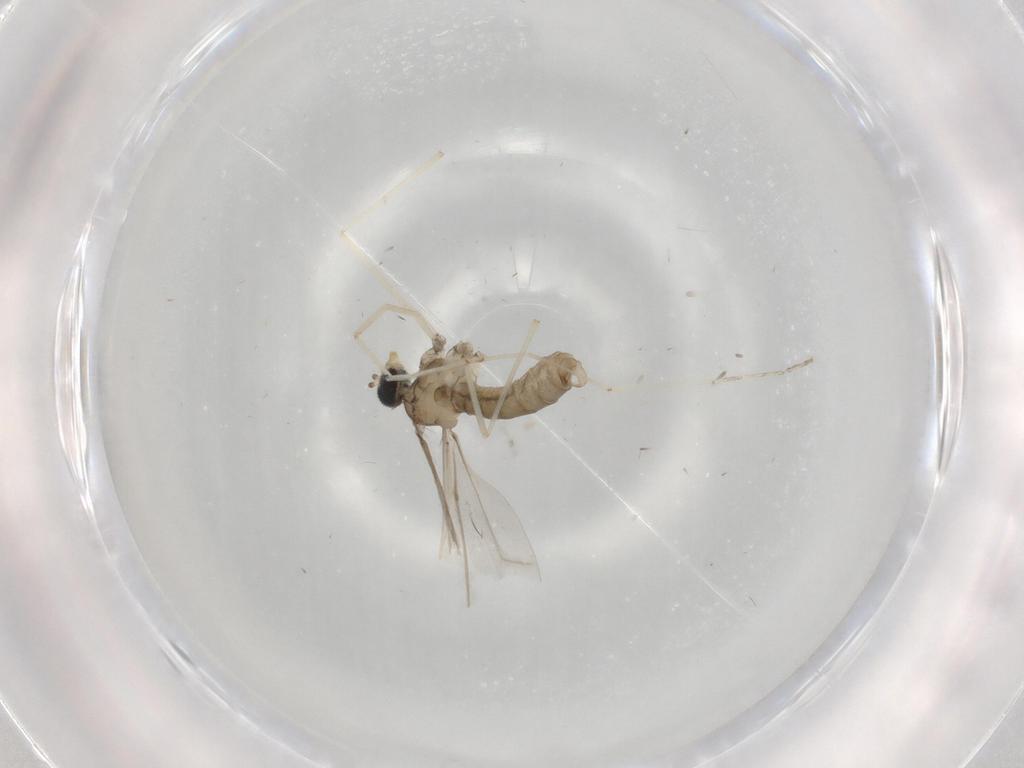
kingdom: Animalia
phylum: Arthropoda
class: Insecta
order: Diptera
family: Cecidomyiidae
